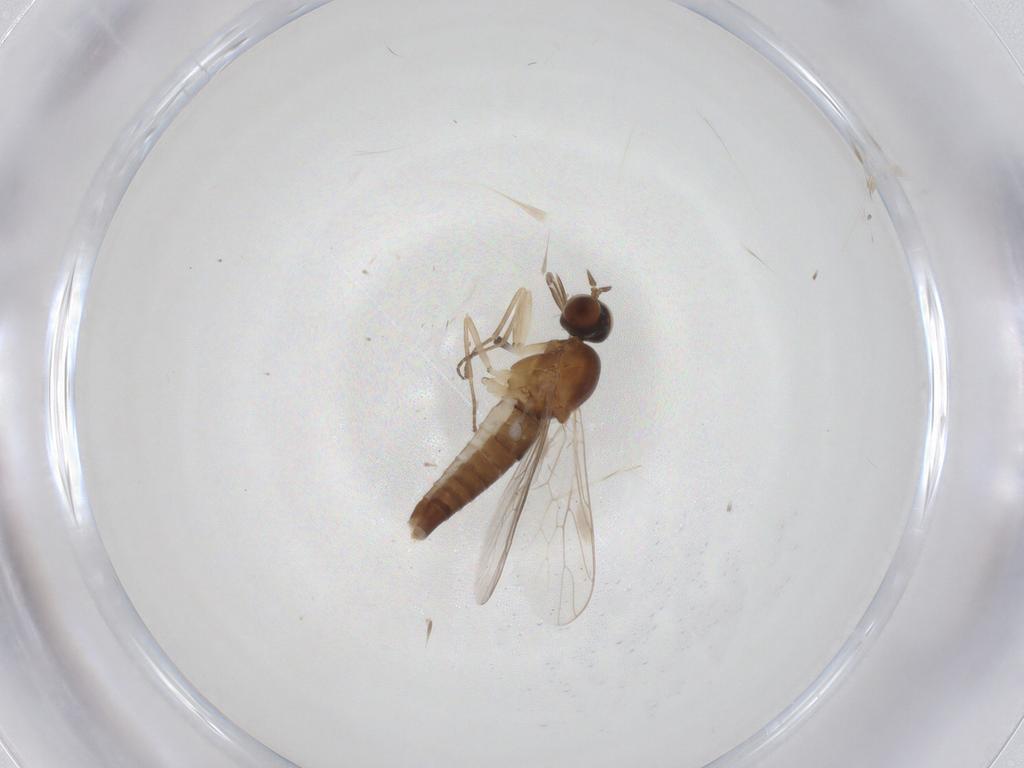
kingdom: Animalia
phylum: Arthropoda
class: Insecta
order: Diptera
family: Scenopinidae
